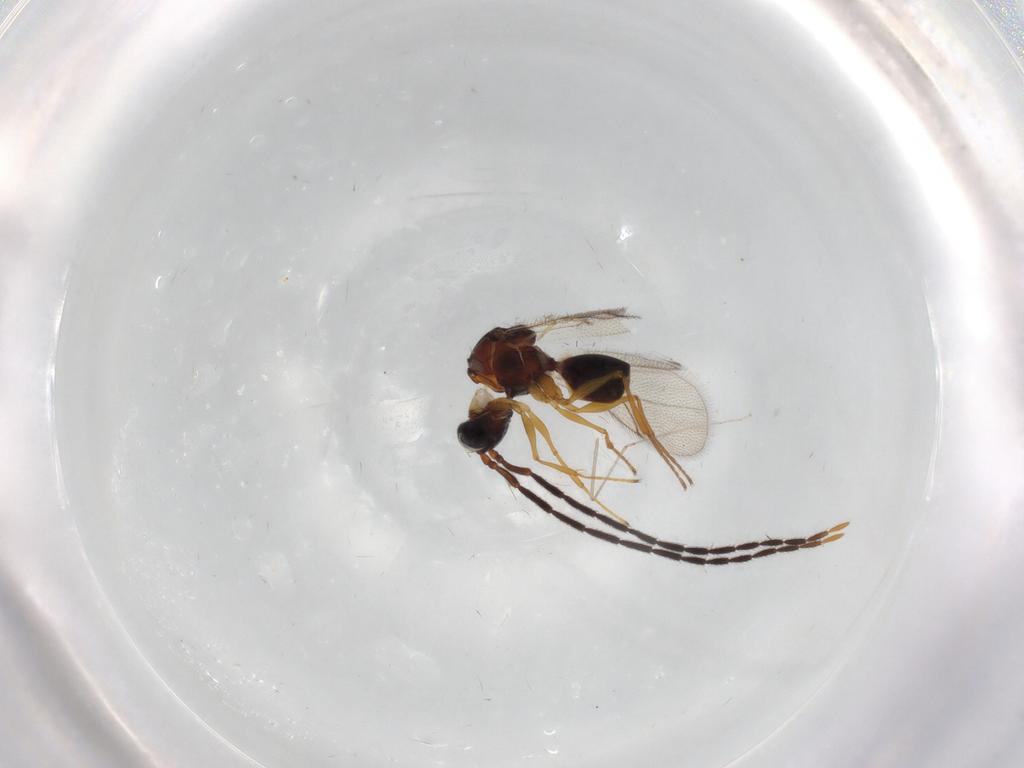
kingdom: Animalia
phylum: Arthropoda
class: Insecta
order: Hymenoptera
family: Figitidae
